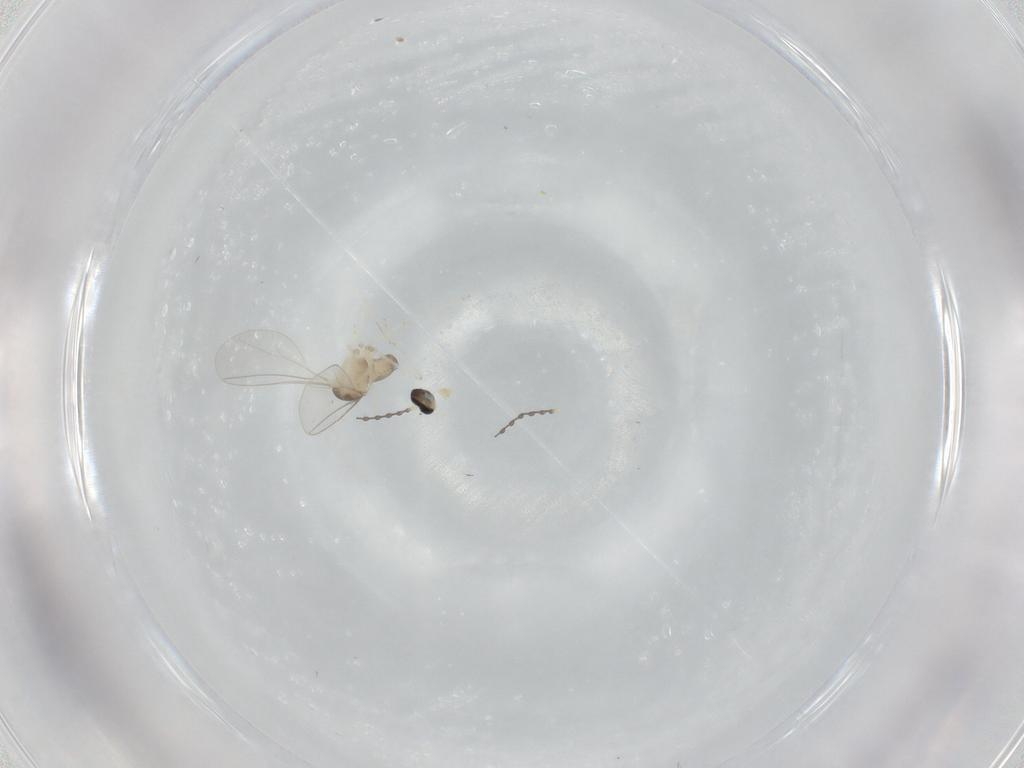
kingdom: Animalia
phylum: Arthropoda
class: Insecta
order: Diptera
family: Cecidomyiidae
